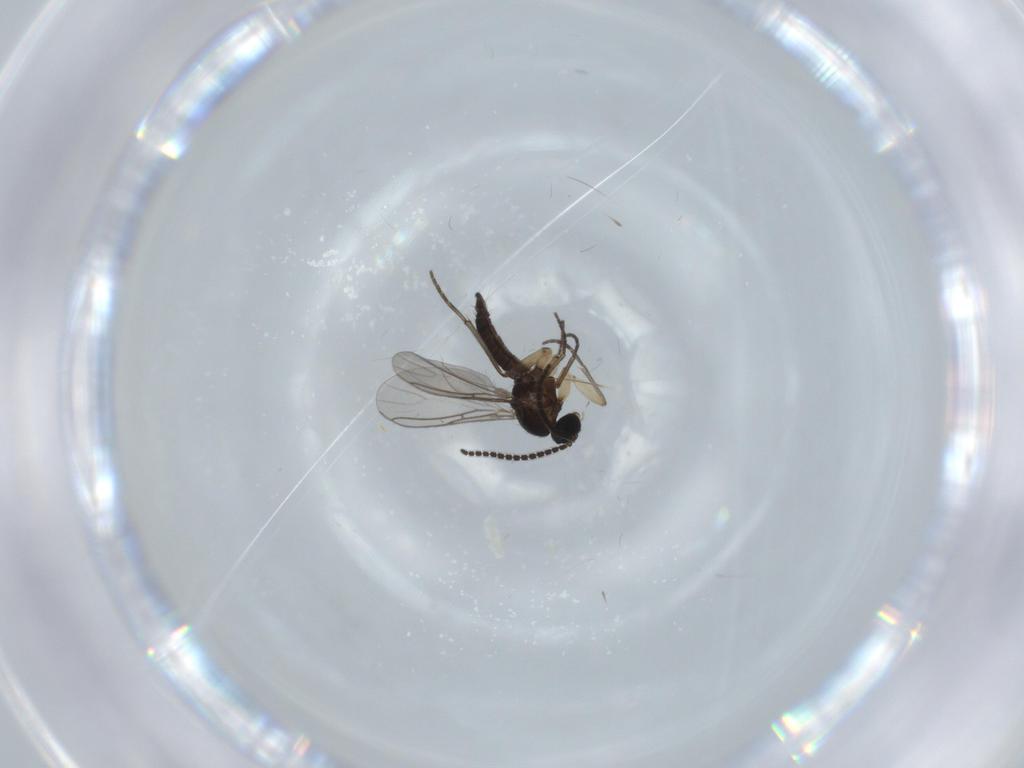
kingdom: Animalia
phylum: Arthropoda
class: Insecta
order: Diptera
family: Sciaridae
